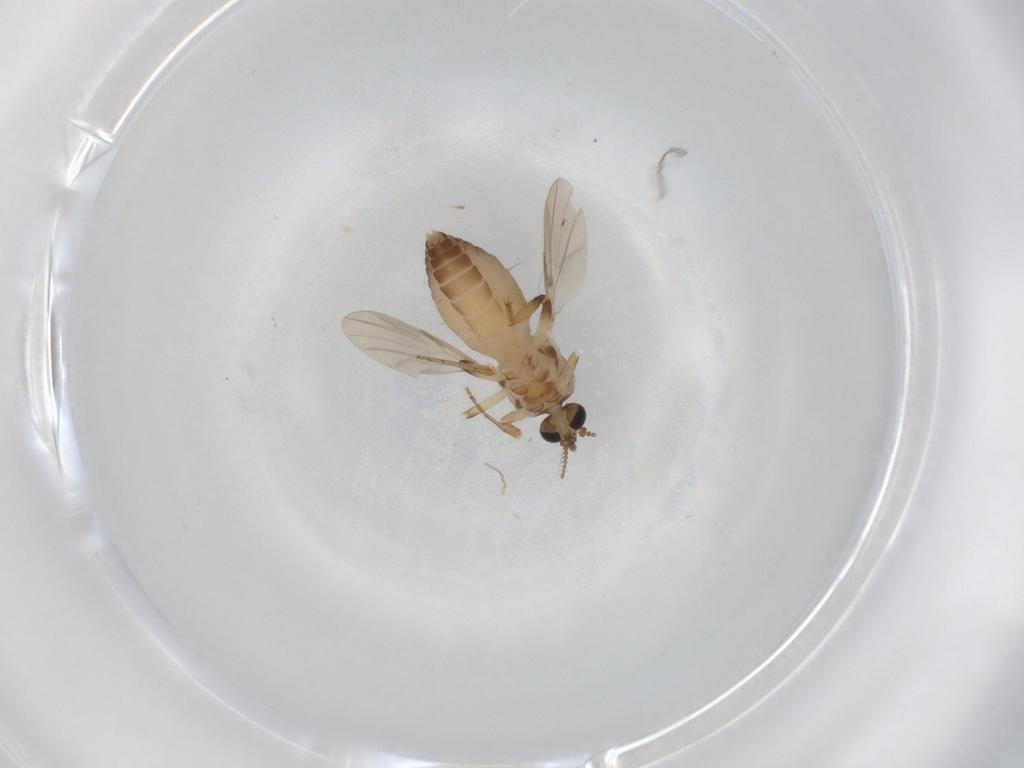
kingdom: Animalia
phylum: Arthropoda
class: Insecta
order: Diptera
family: Ceratopogonidae
